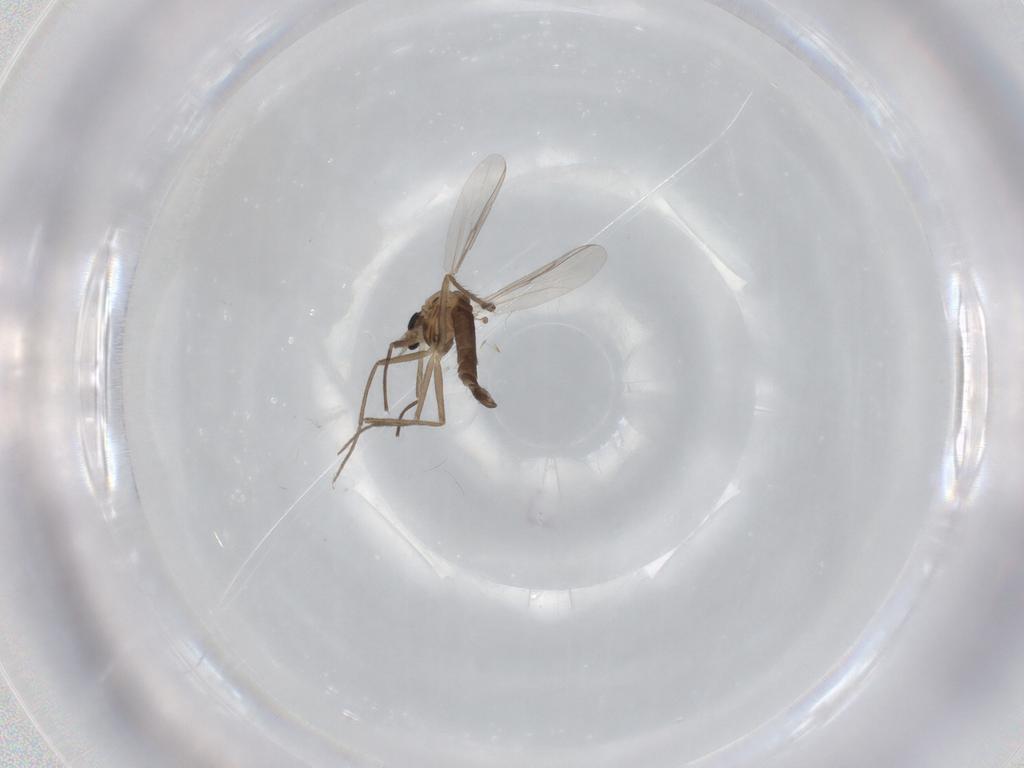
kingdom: Animalia
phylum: Arthropoda
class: Insecta
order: Diptera
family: Chironomidae
